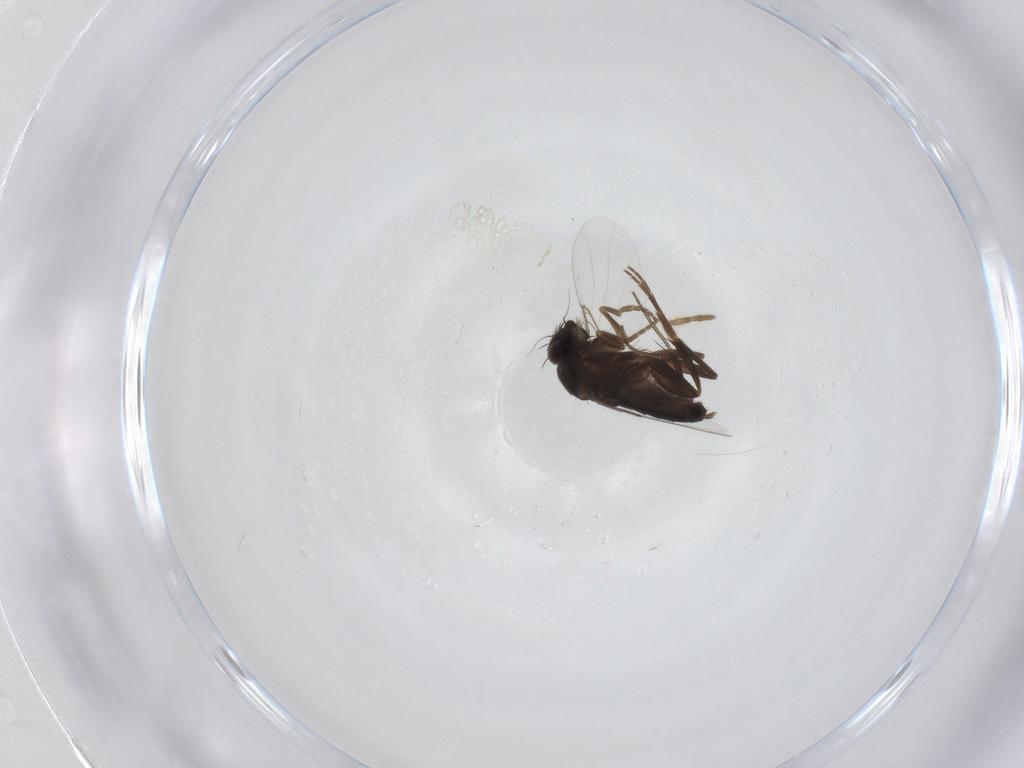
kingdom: Animalia
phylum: Arthropoda
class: Insecta
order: Diptera
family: Phoridae
